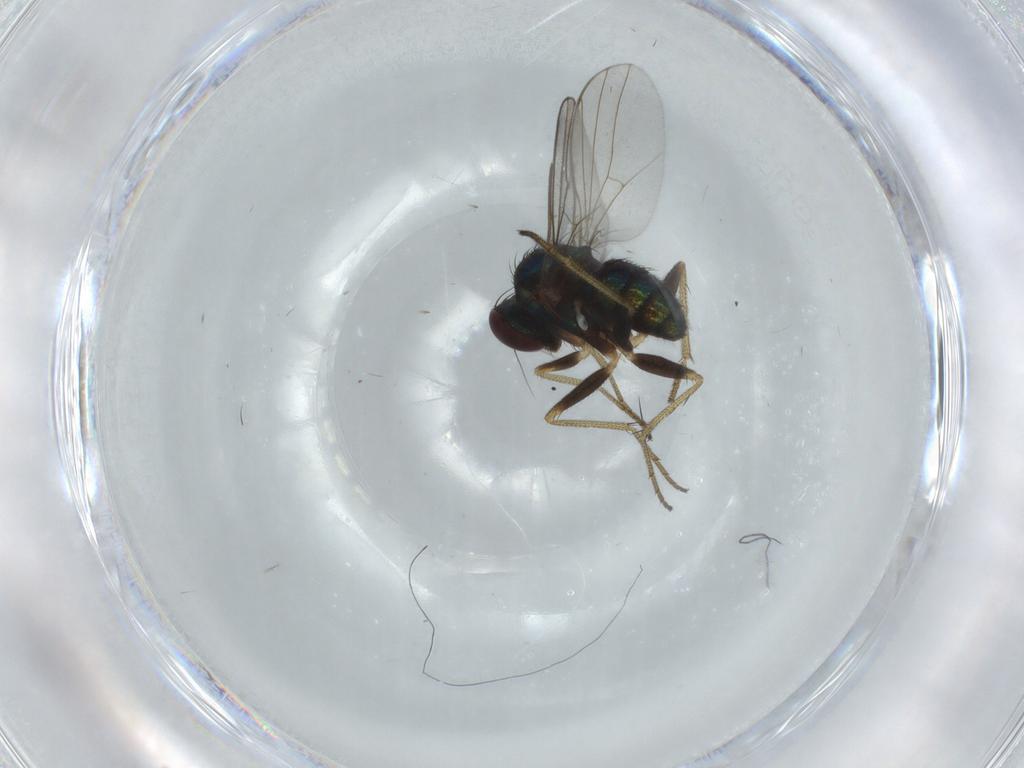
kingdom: Animalia
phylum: Arthropoda
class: Insecta
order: Diptera
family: Cecidomyiidae
